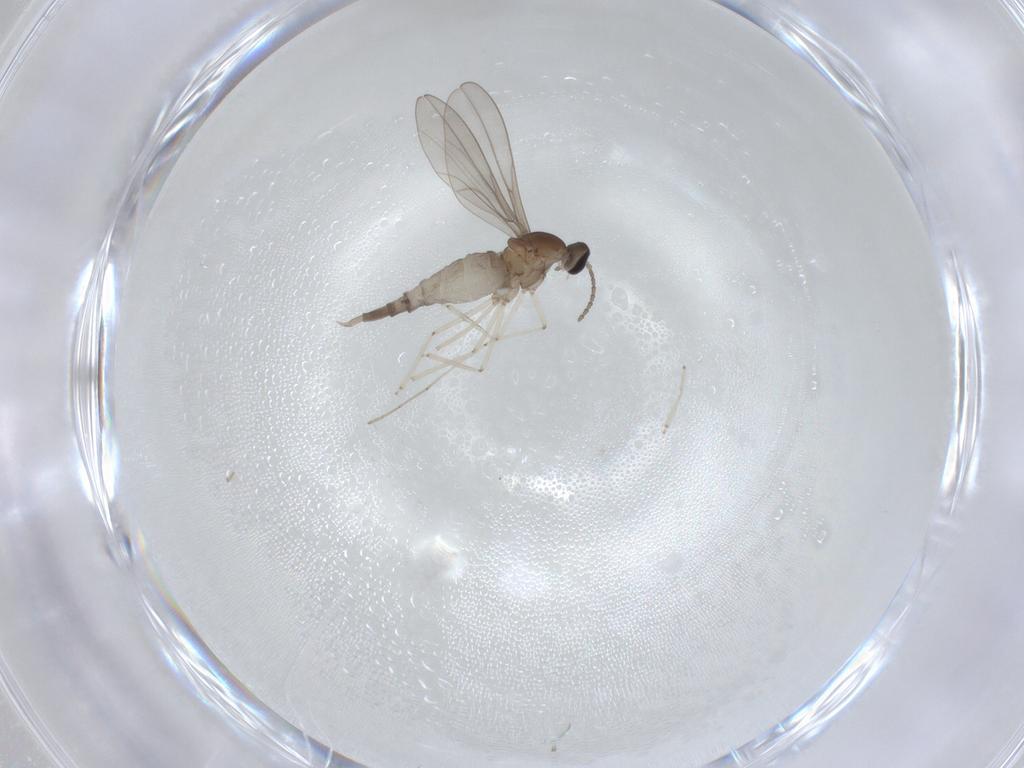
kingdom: Animalia
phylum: Arthropoda
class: Insecta
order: Diptera
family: Cecidomyiidae
